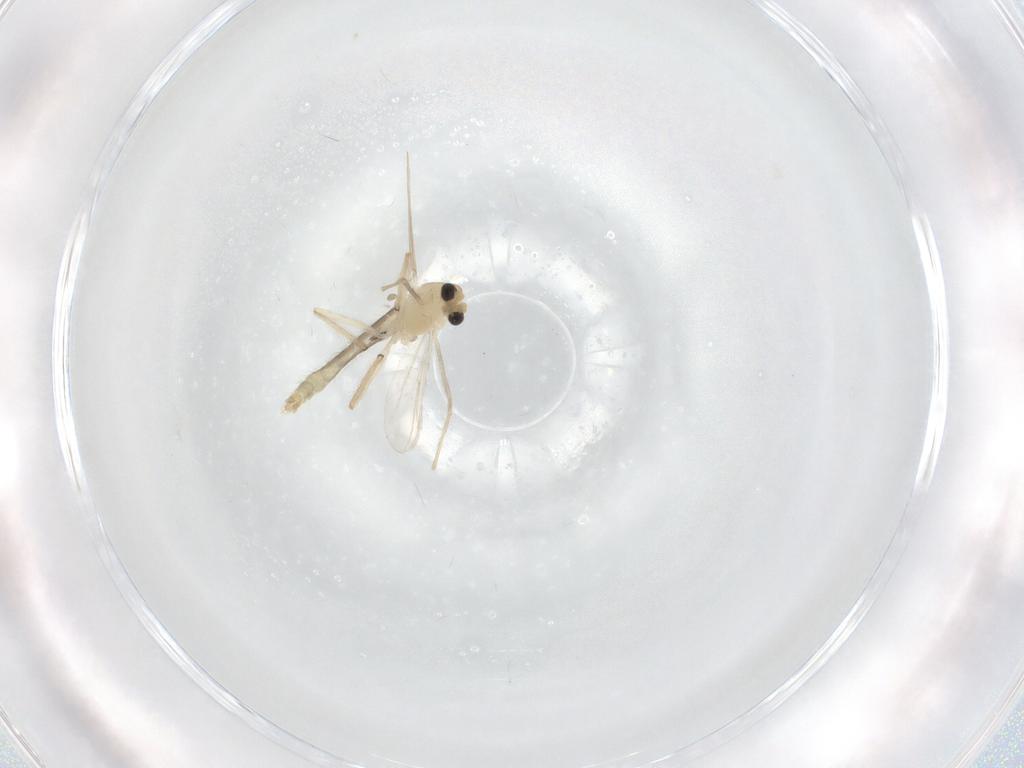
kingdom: Animalia
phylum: Arthropoda
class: Insecta
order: Diptera
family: Chironomidae
